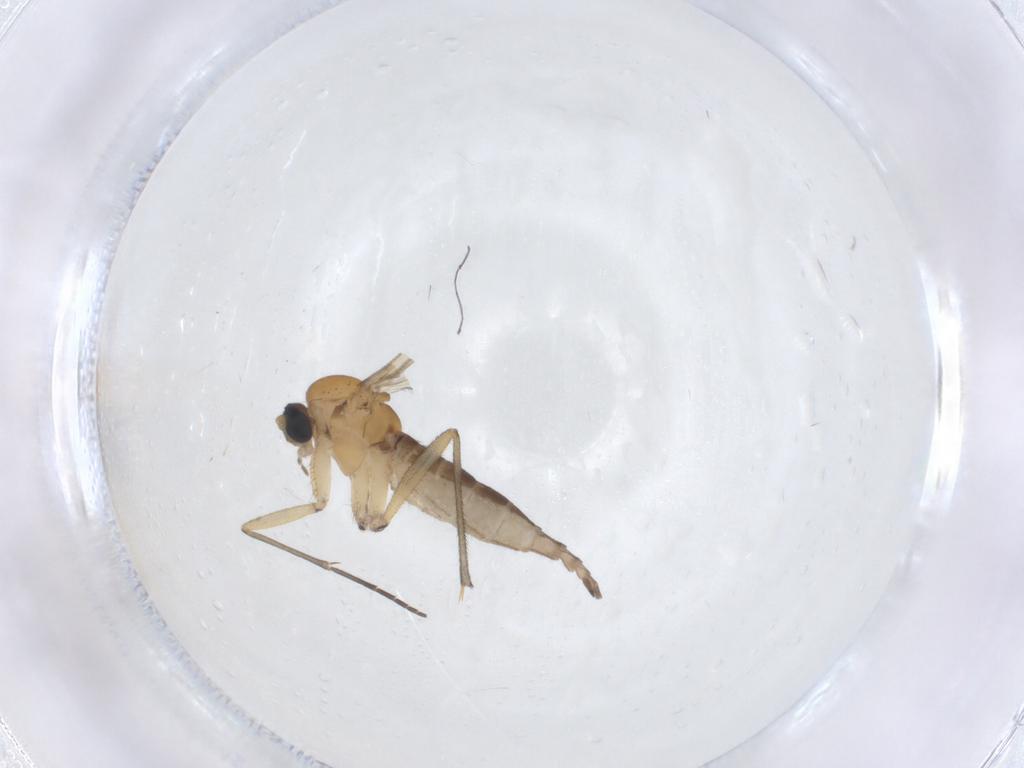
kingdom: Animalia
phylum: Arthropoda
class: Insecta
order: Diptera
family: Sciaridae
